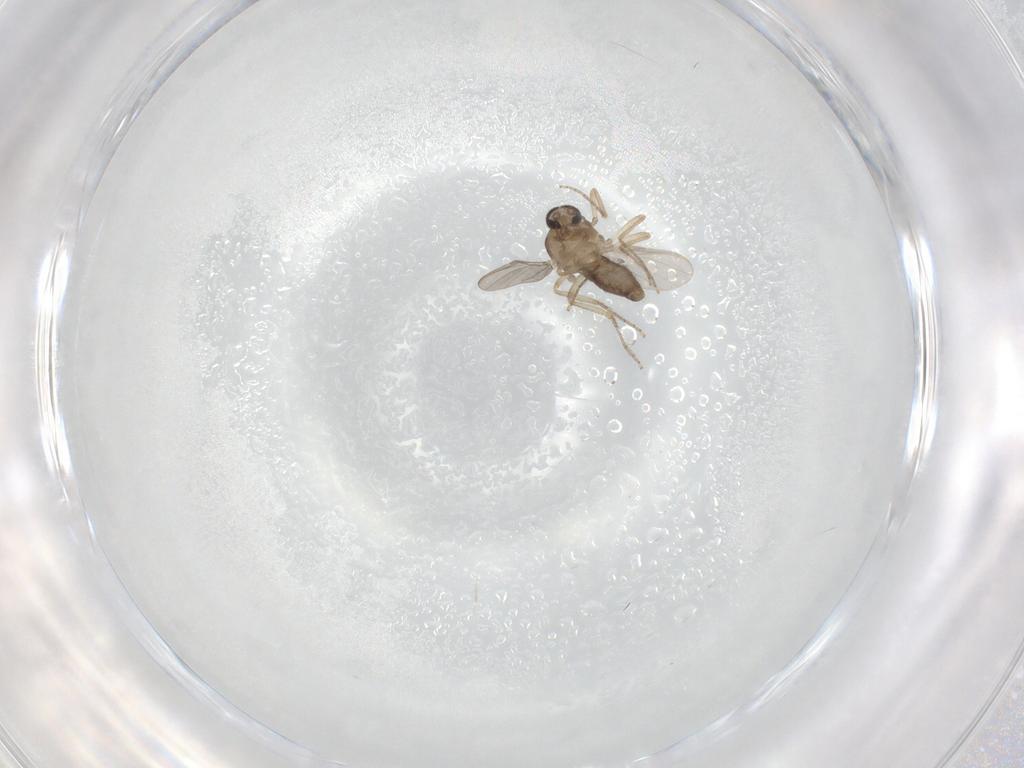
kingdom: Animalia
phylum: Arthropoda
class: Insecta
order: Diptera
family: Ceratopogonidae
